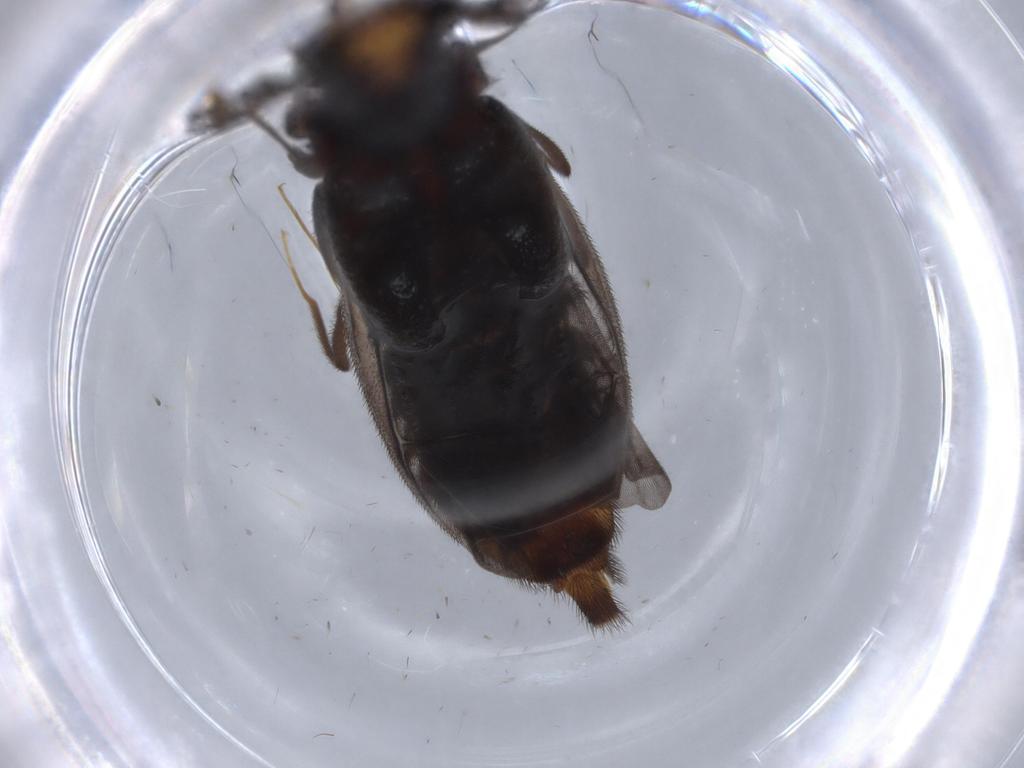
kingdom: Animalia
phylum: Arthropoda
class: Insecta
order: Coleoptera
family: Phengodidae
